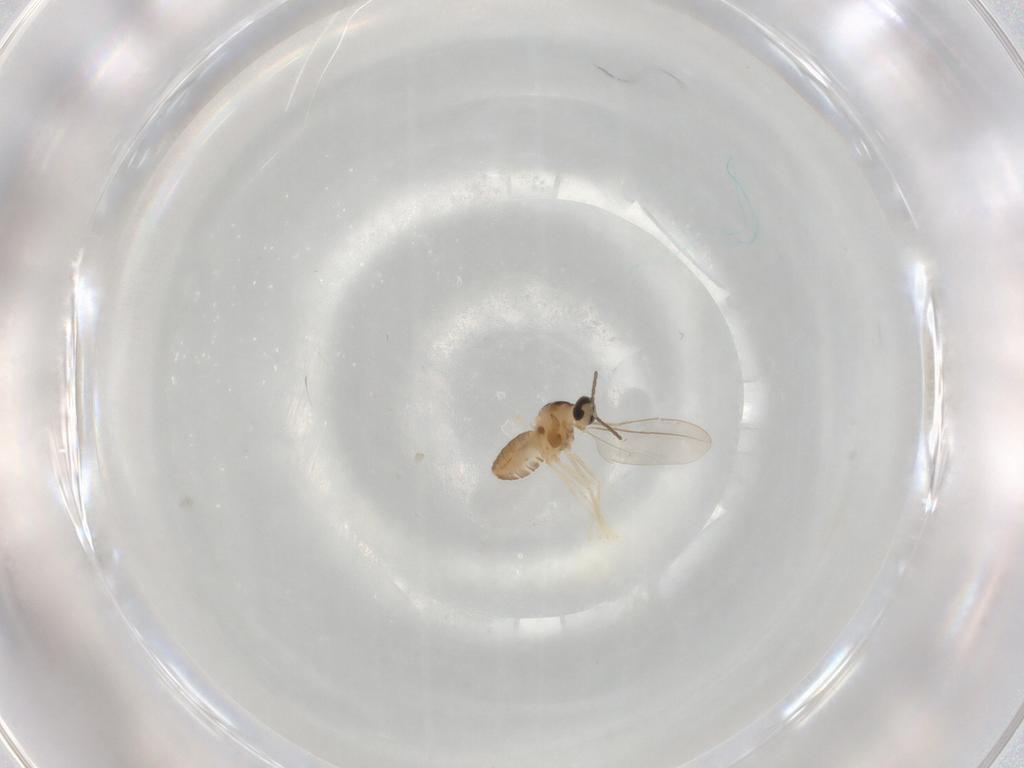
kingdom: Animalia
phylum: Arthropoda
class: Insecta
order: Diptera
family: Cecidomyiidae
